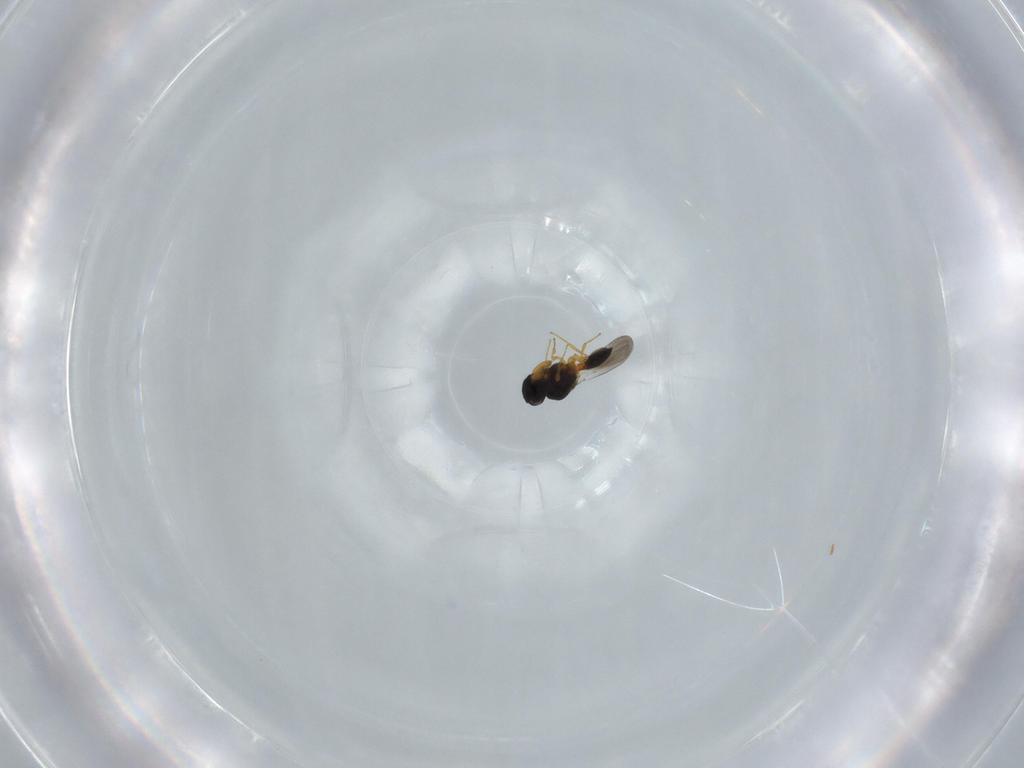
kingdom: Animalia
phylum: Arthropoda
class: Insecta
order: Hymenoptera
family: Platygastridae
